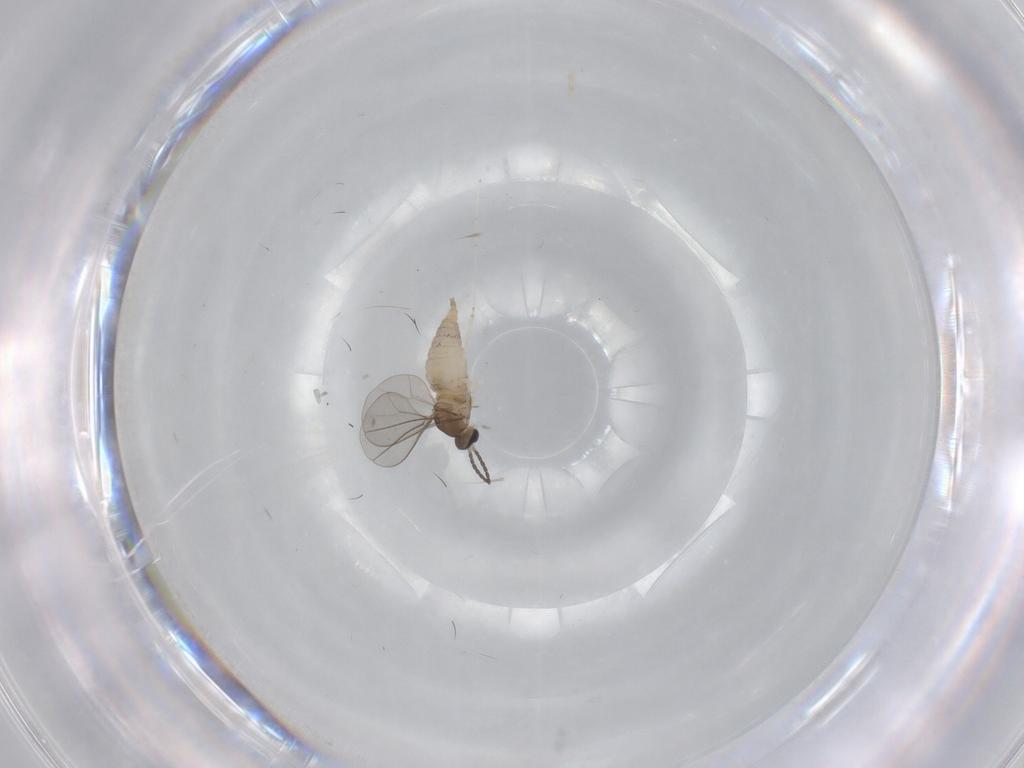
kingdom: Animalia
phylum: Arthropoda
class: Insecta
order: Diptera
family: Cecidomyiidae
